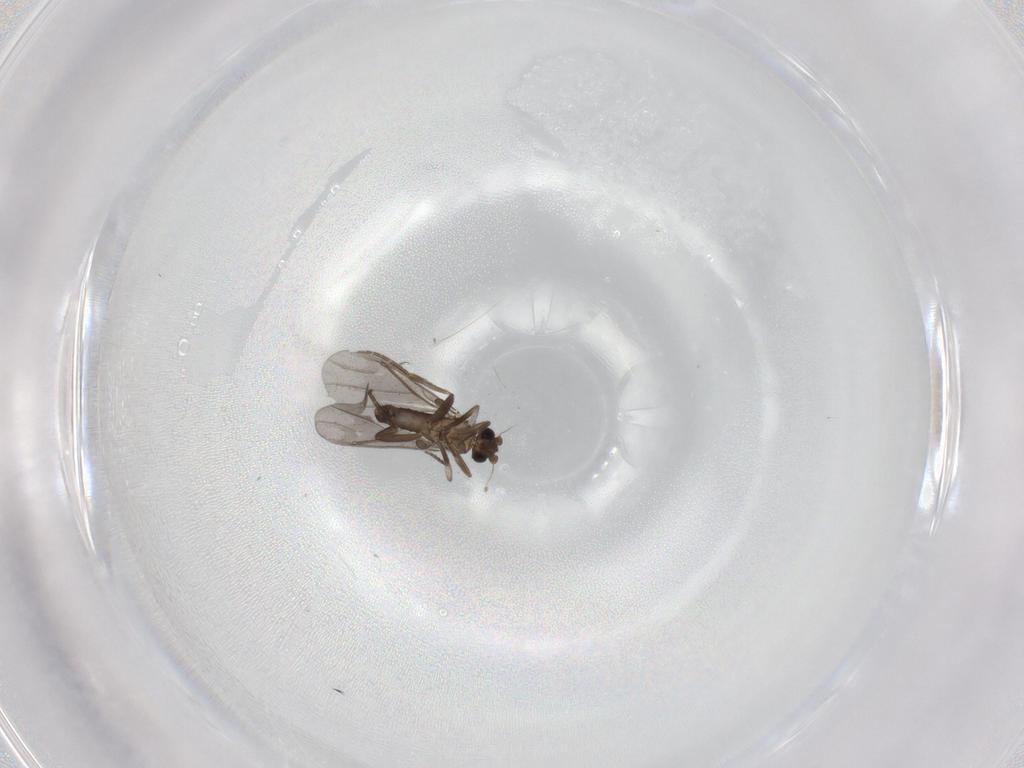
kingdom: Animalia
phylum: Arthropoda
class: Insecta
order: Diptera
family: Phoridae
